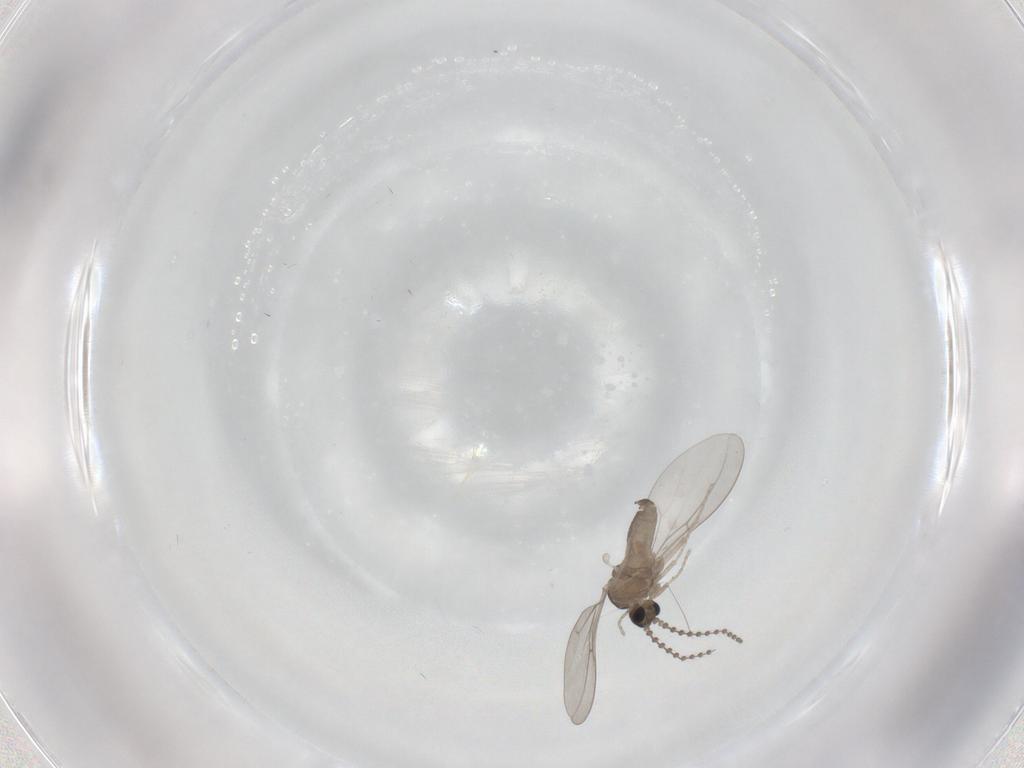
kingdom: Animalia
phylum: Arthropoda
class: Insecta
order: Diptera
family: Cecidomyiidae
